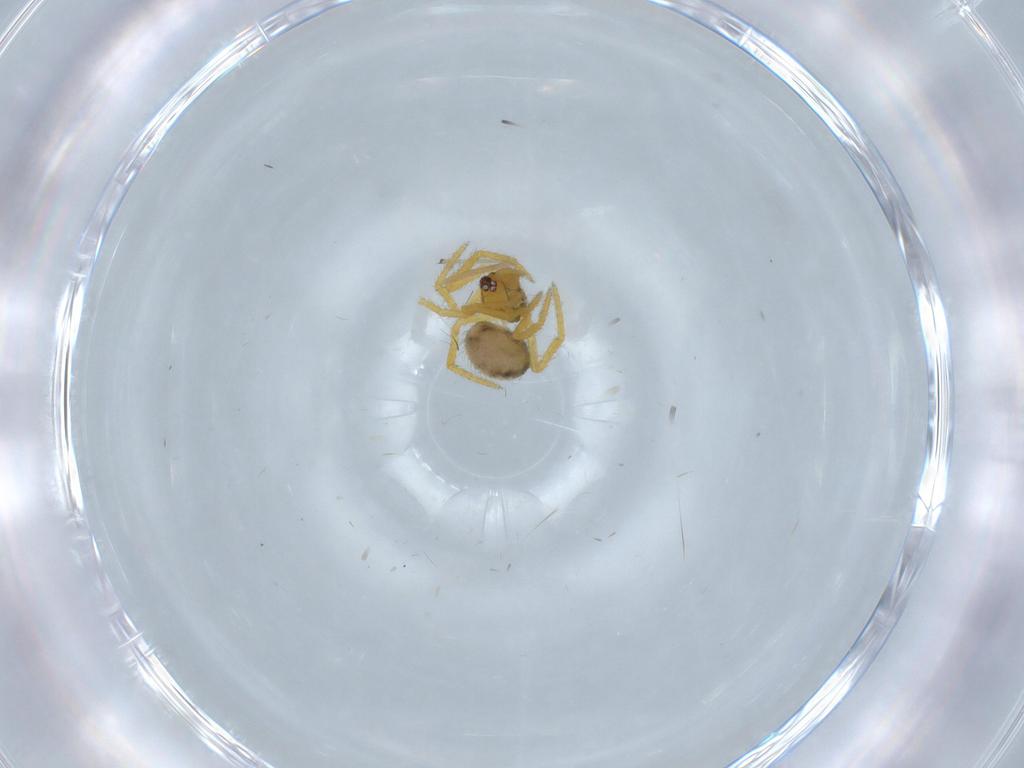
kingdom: Animalia
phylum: Arthropoda
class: Arachnida
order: Araneae
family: Theridiidae
